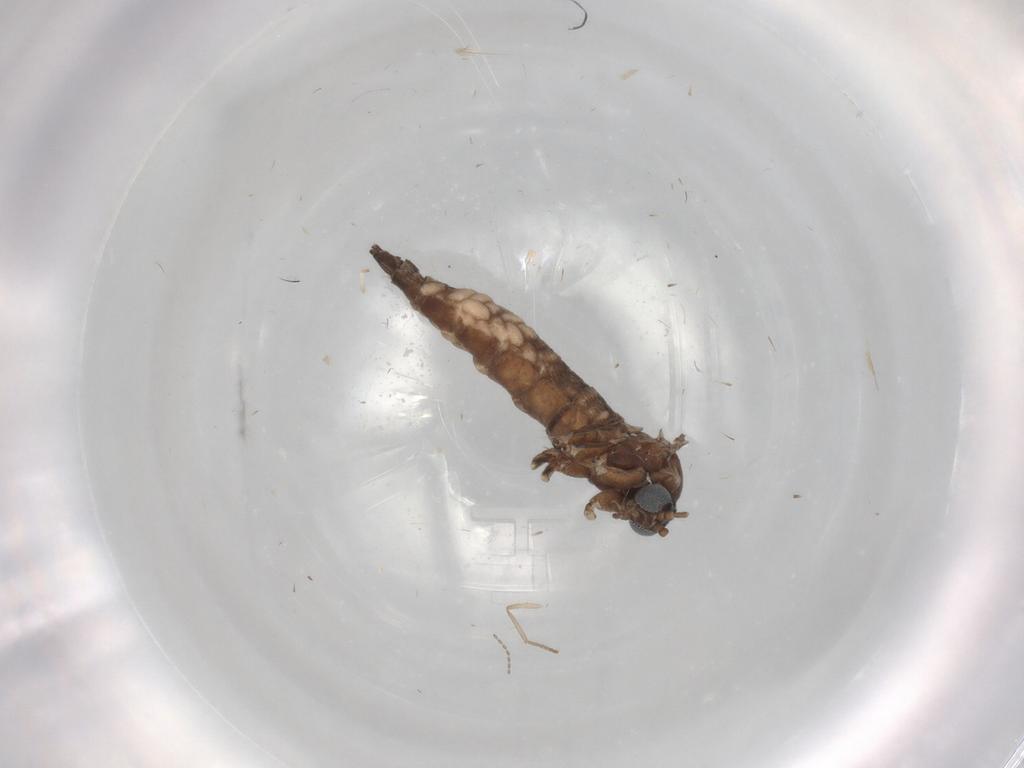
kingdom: Animalia
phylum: Arthropoda
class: Insecta
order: Diptera
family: Sciaridae
